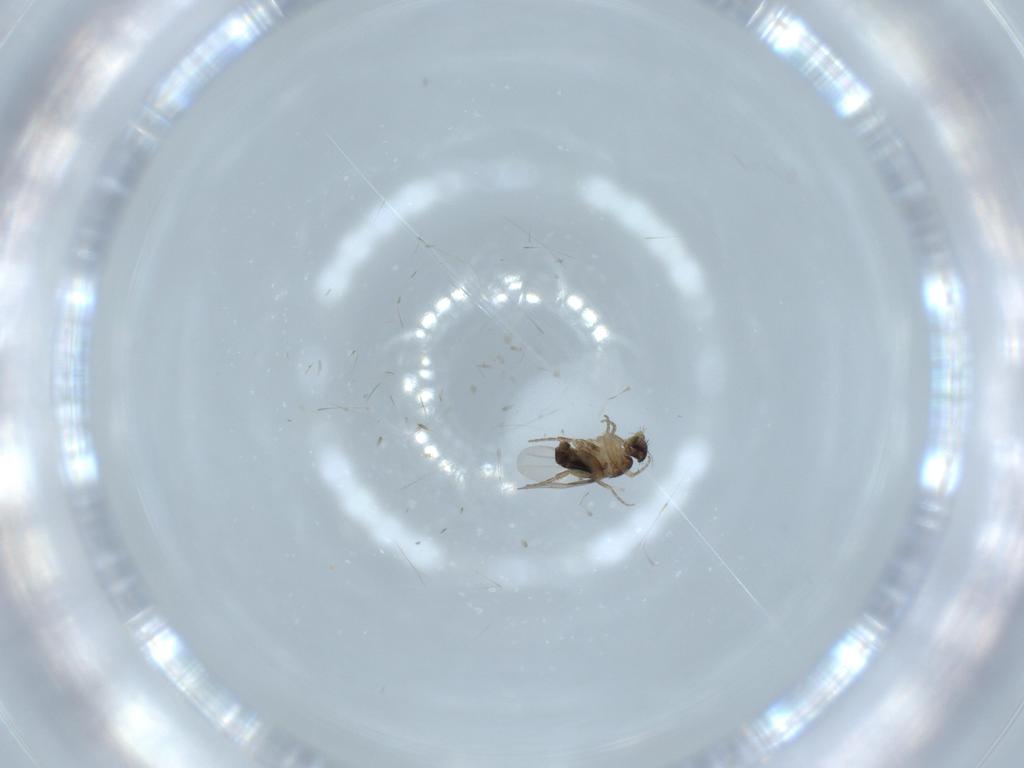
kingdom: Animalia
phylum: Arthropoda
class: Insecta
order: Diptera
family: Phoridae
